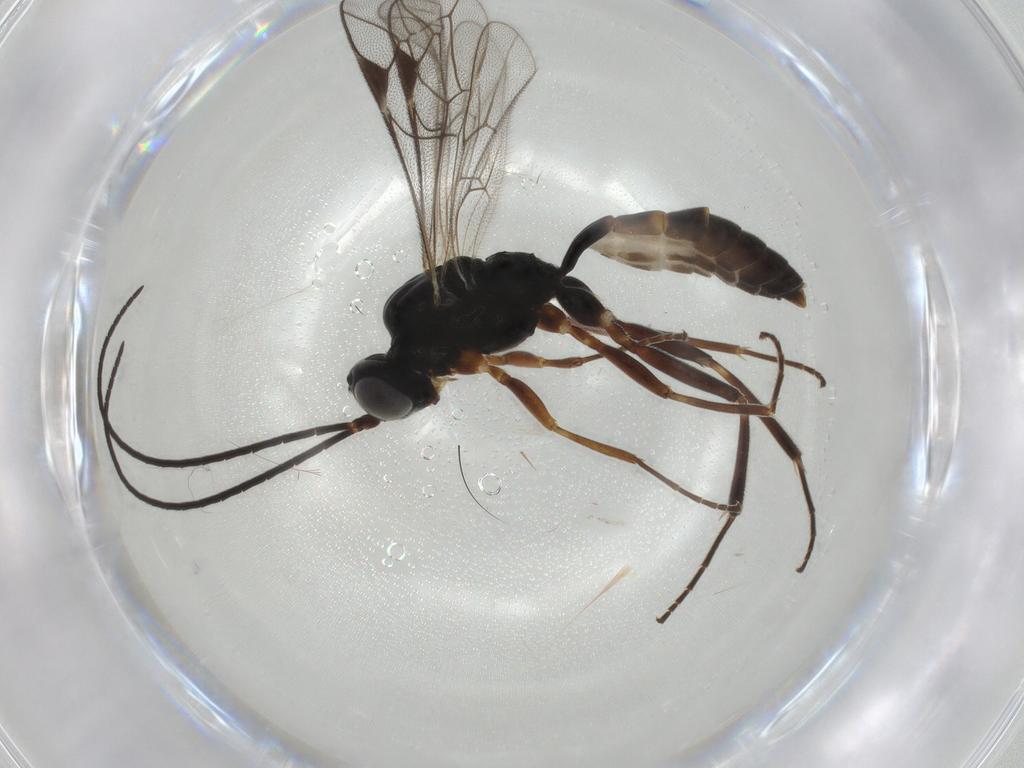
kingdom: Animalia
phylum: Arthropoda
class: Insecta
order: Hymenoptera
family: Ichneumonidae
